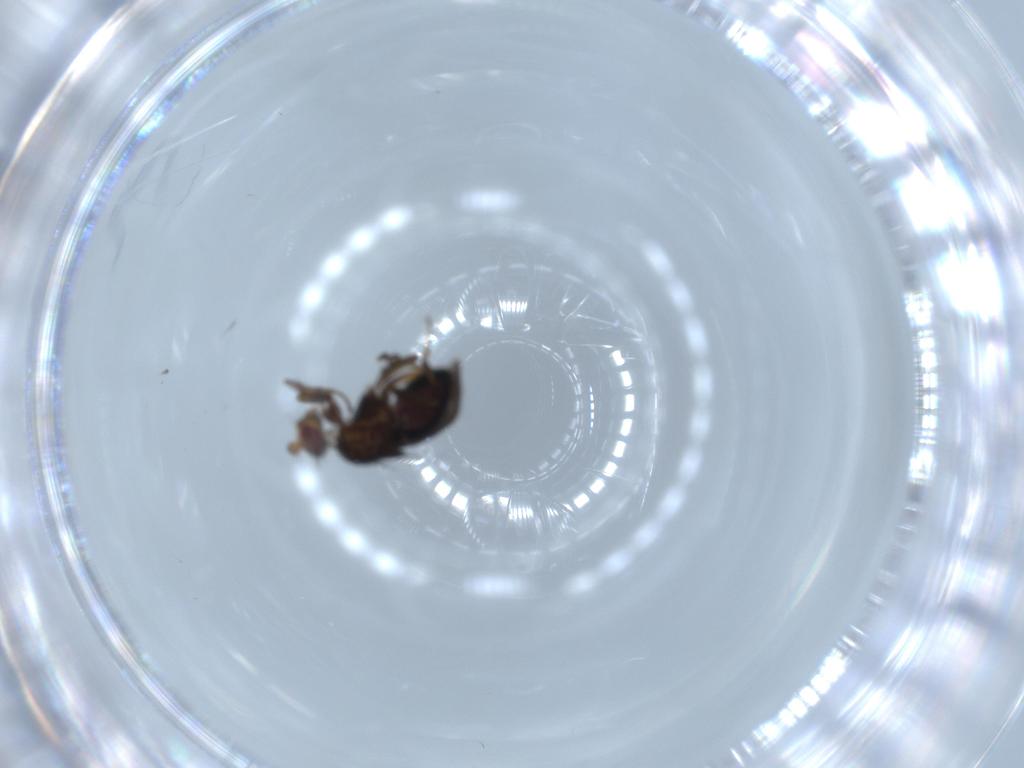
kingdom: Animalia
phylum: Arthropoda
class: Insecta
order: Diptera
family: Sphaeroceridae
